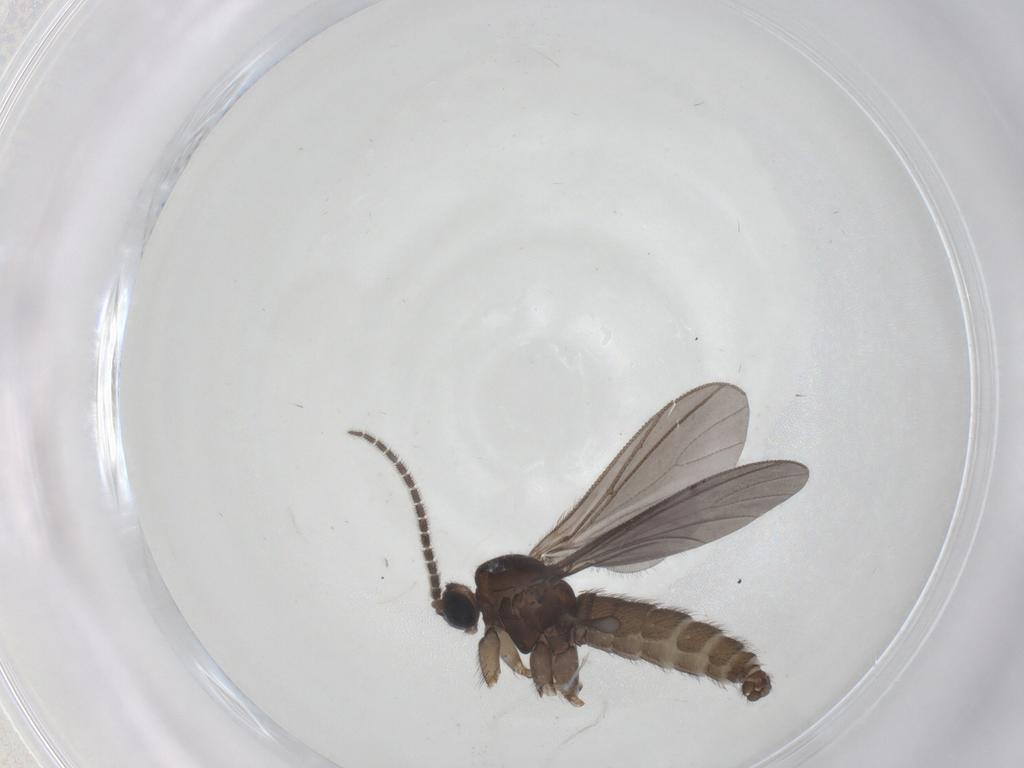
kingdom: Animalia
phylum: Arthropoda
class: Insecta
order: Diptera
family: Sciaridae
